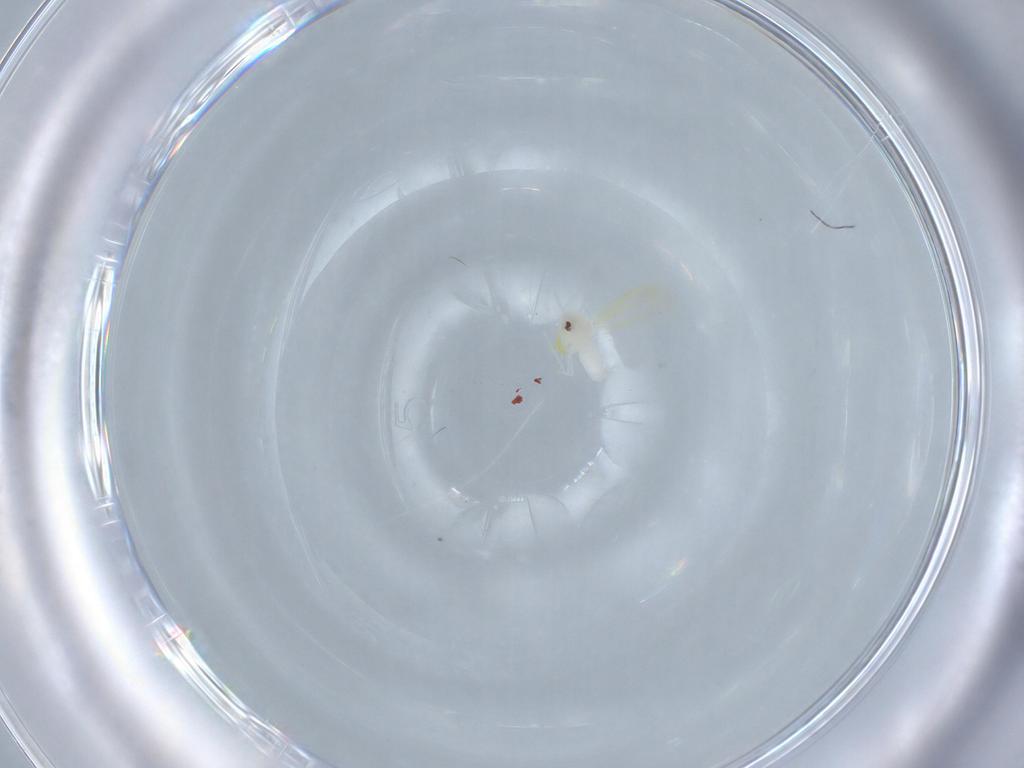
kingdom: Animalia
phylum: Arthropoda
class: Insecta
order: Hemiptera
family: Aleyrodidae
